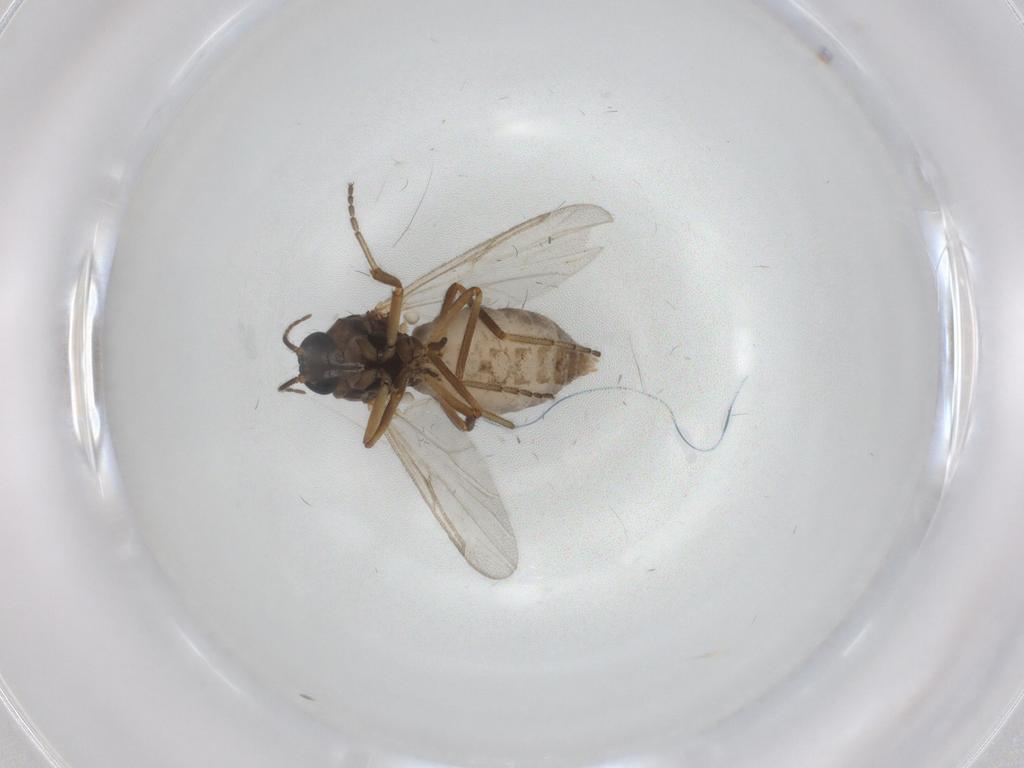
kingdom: Animalia
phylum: Arthropoda
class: Insecta
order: Diptera
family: Ceratopogonidae
